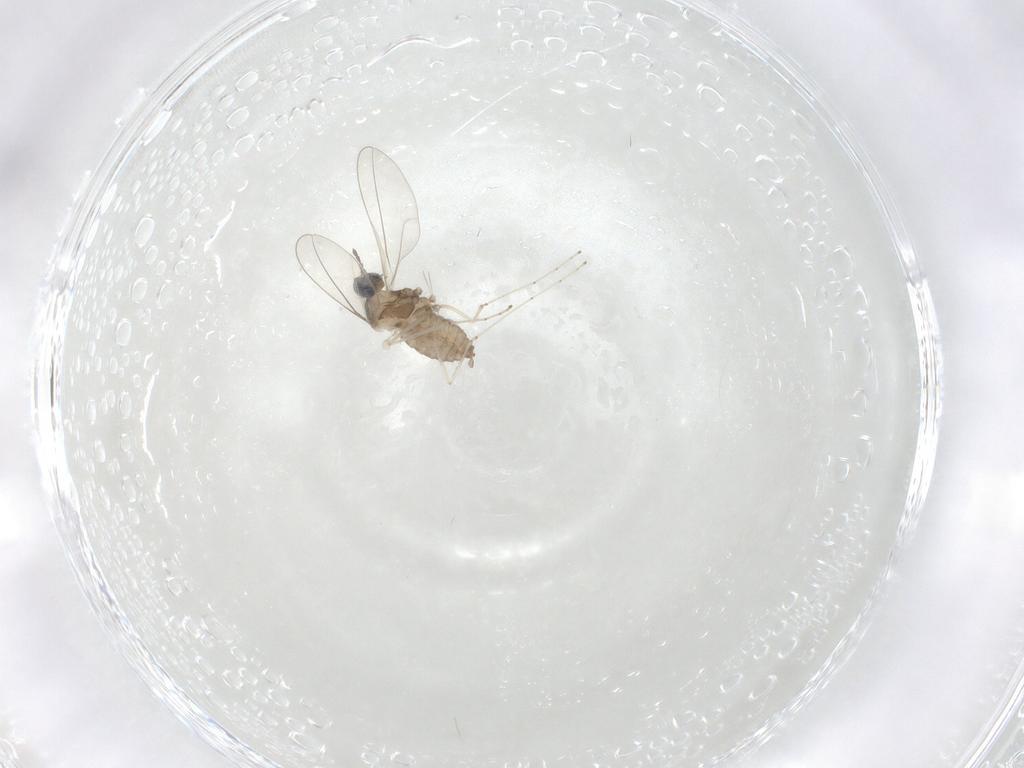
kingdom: Animalia
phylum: Arthropoda
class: Insecta
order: Diptera
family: Cecidomyiidae
